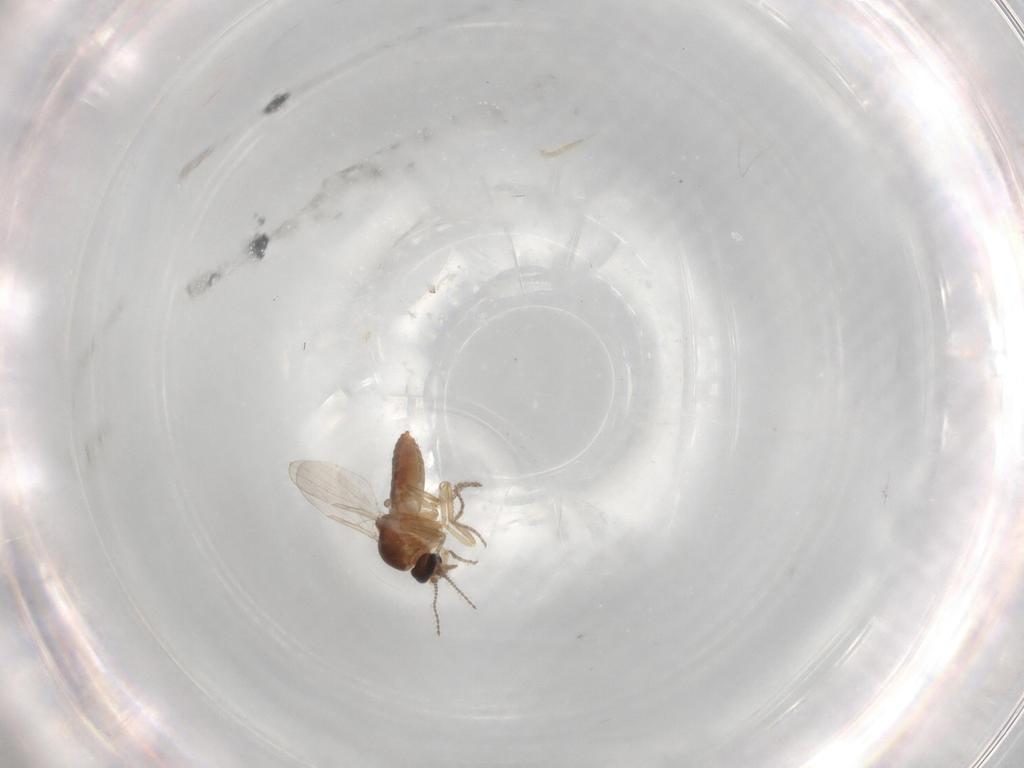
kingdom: Animalia
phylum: Arthropoda
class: Insecta
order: Diptera
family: Ceratopogonidae
